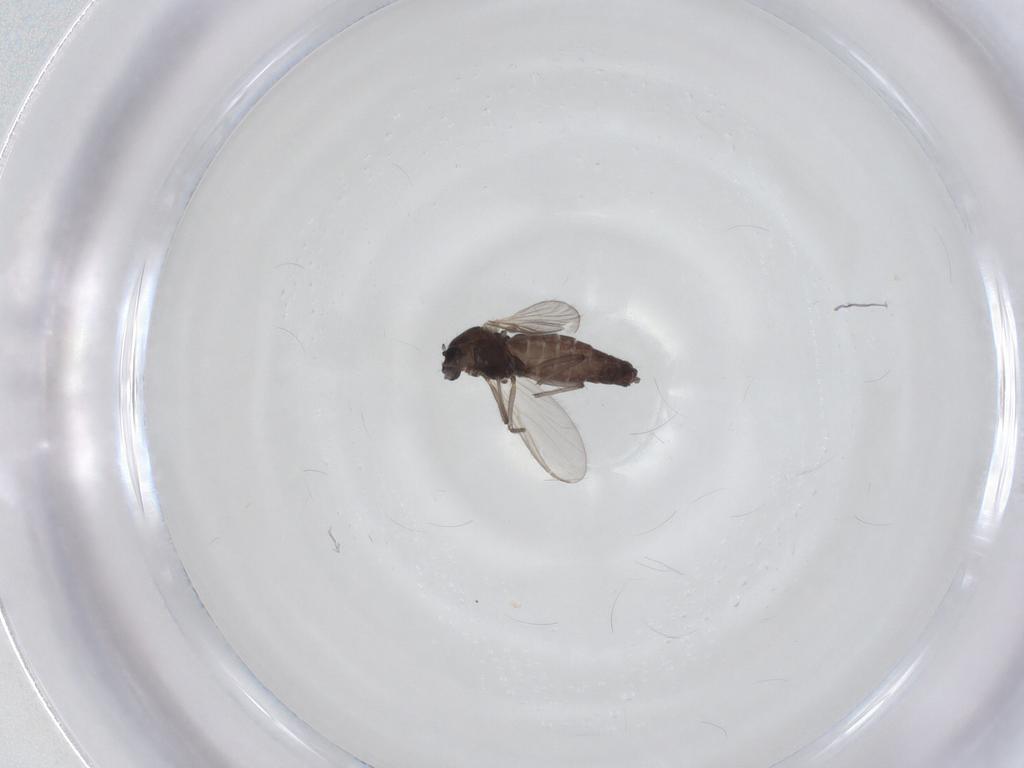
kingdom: Animalia
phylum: Arthropoda
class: Insecta
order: Diptera
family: Chironomidae
